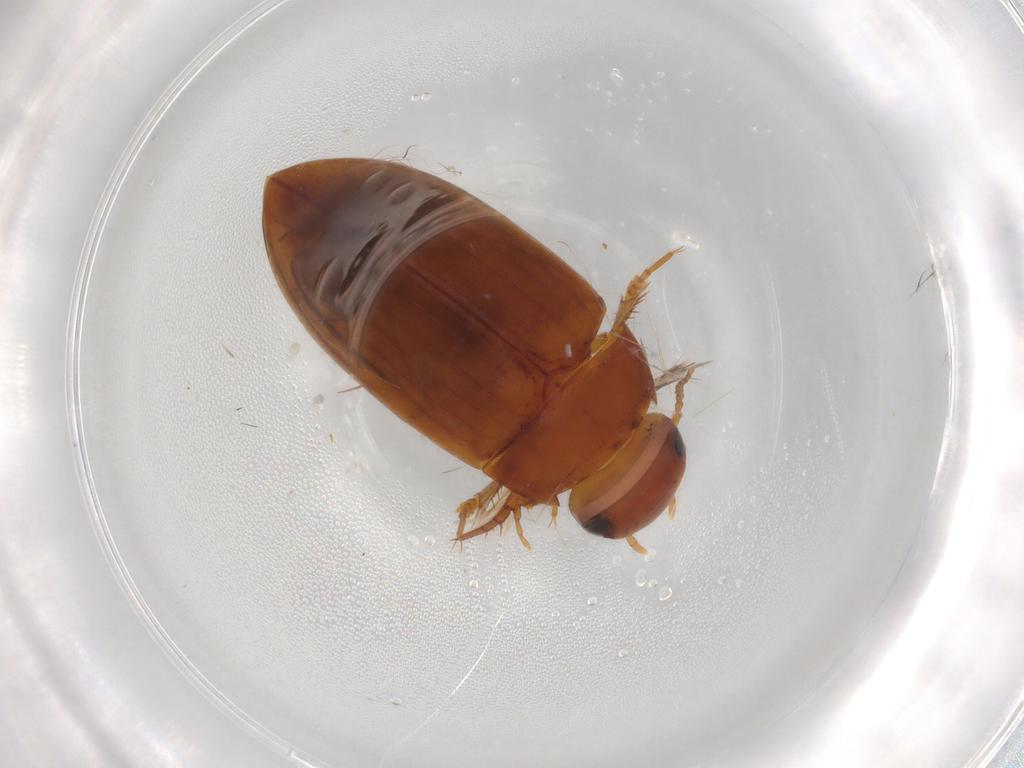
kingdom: Animalia
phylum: Arthropoda
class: Insecta
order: Coleoptera
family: Staphylinidae
